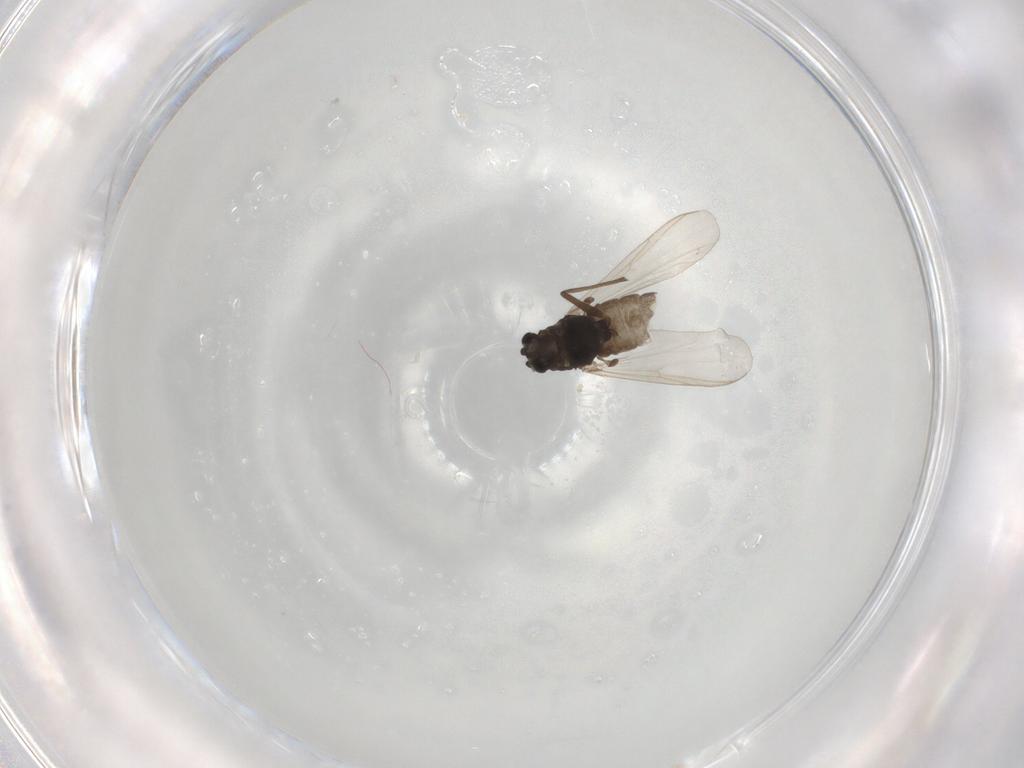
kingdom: Animalia
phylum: Arthropoda
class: Insecta
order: Diptera
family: Chironomidae
